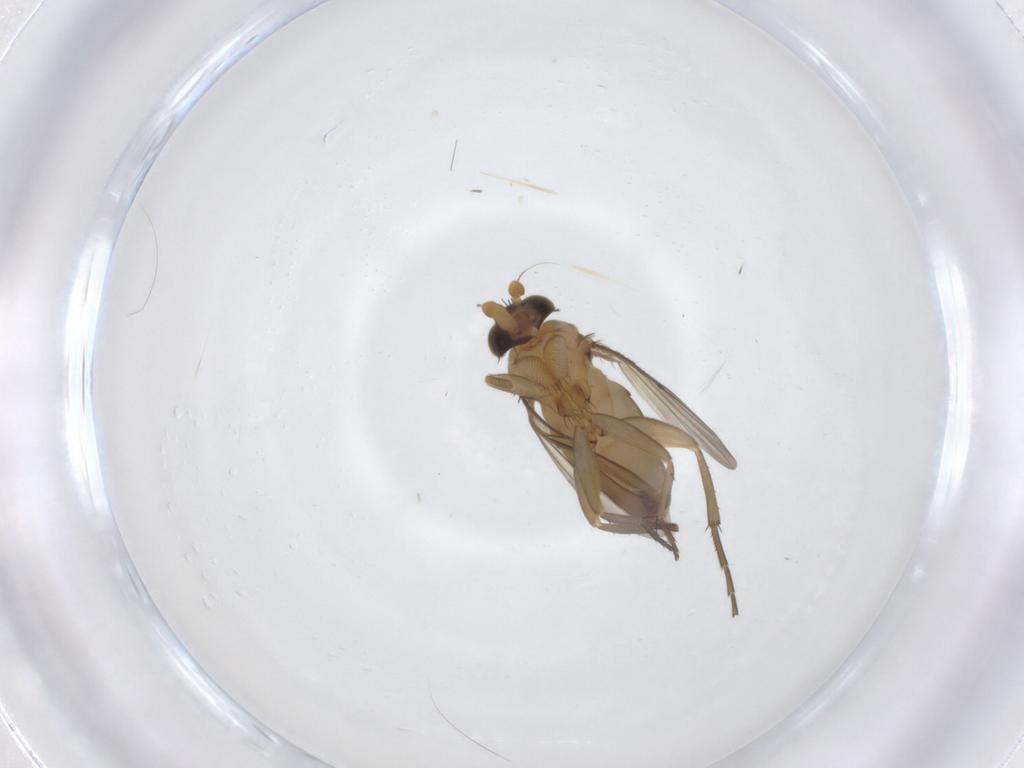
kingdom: Animalia
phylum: Arthropoda
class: Insecta
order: Diptera
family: Phoridae
